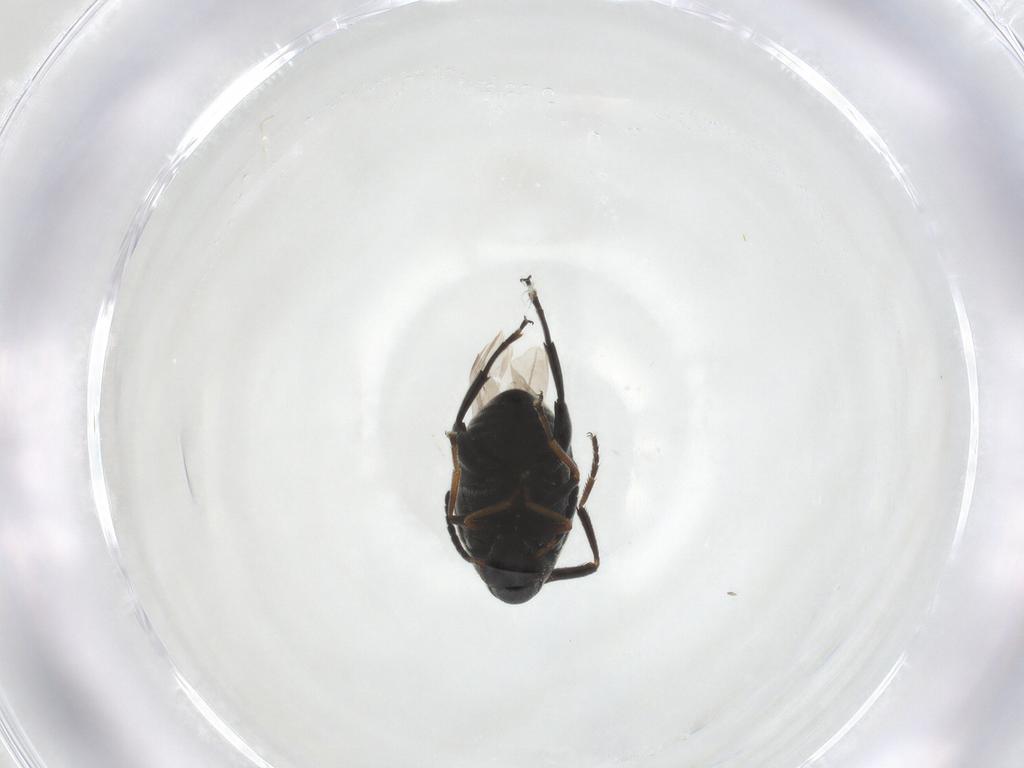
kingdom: Animalia
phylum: Arthropoda
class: Insecta
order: Coleoptera
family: Chrysomelidae
